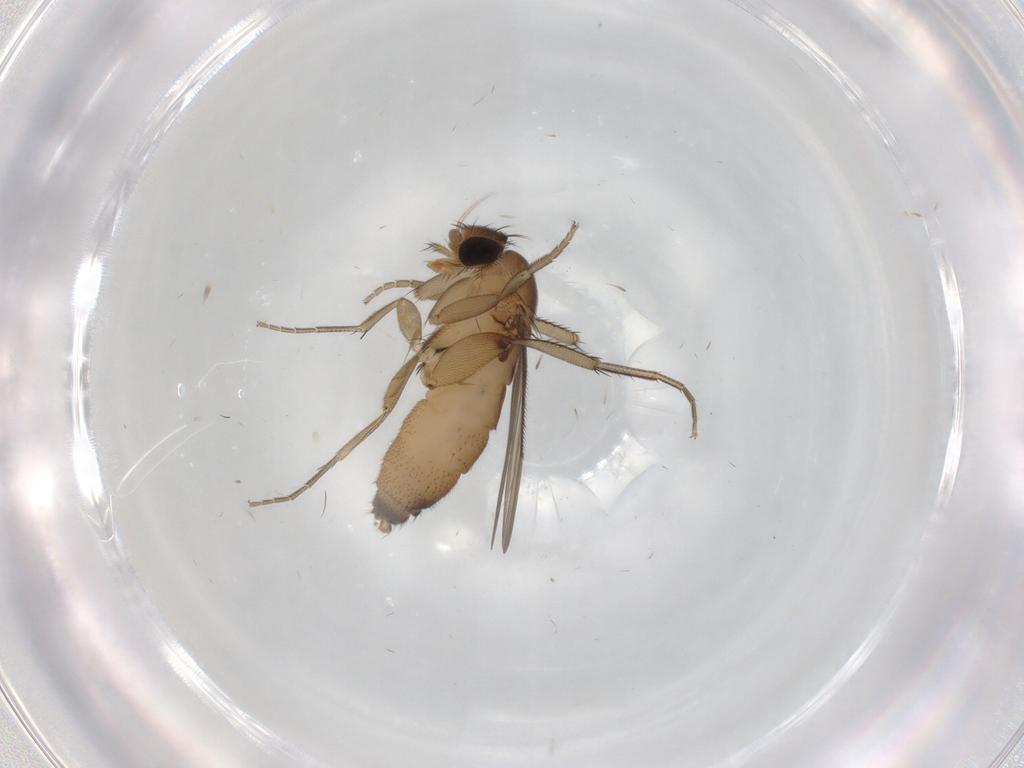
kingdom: Animalia
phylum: Arthropoda
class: Insecta
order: Diptera
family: Phoridae
